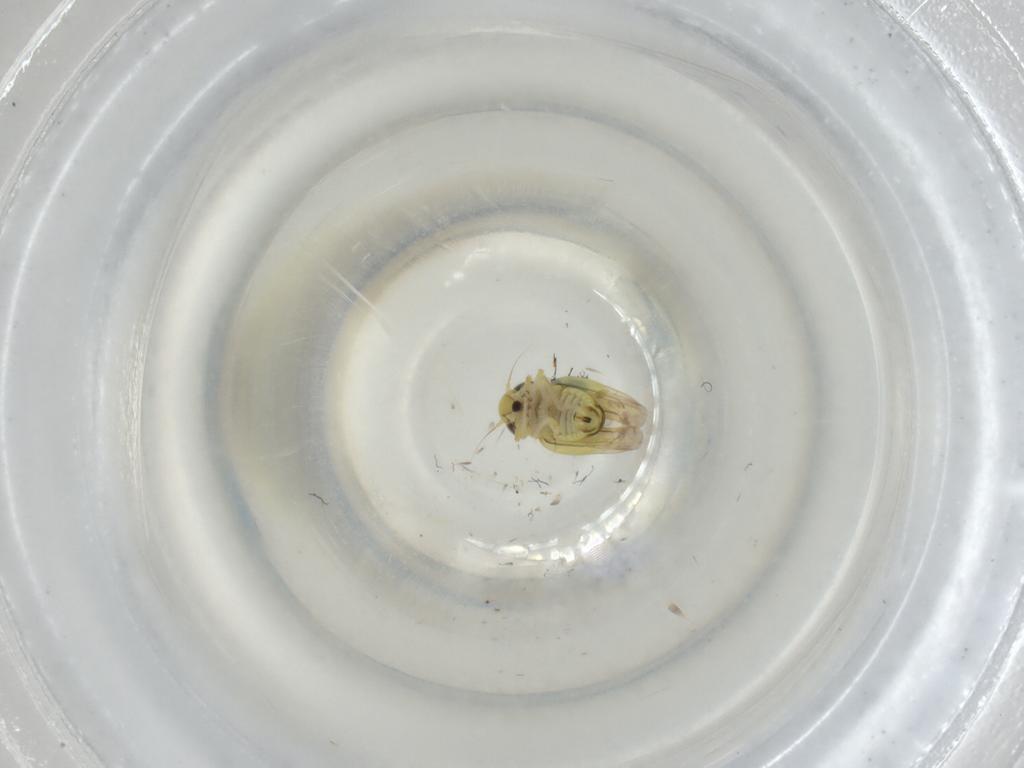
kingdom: Animalia
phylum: Arthropoda
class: Insecta
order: Hemiptera
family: Cicadellidae
